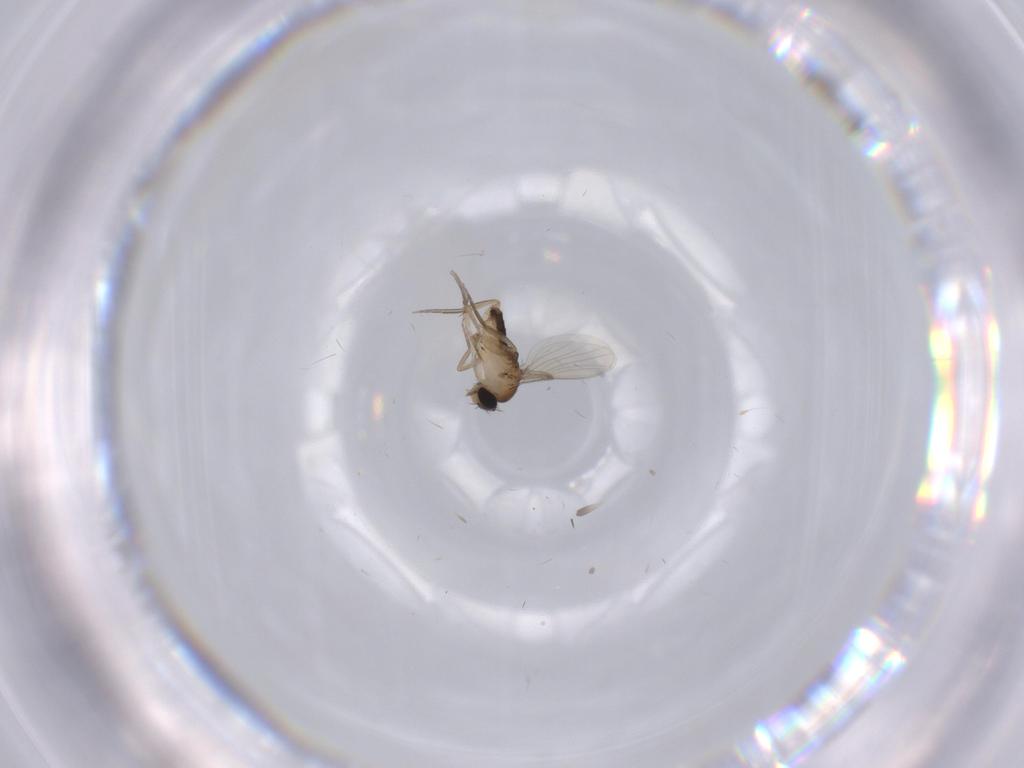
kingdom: Animalia
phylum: Arthropoda
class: Insecta
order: Diptera
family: Phoridae
